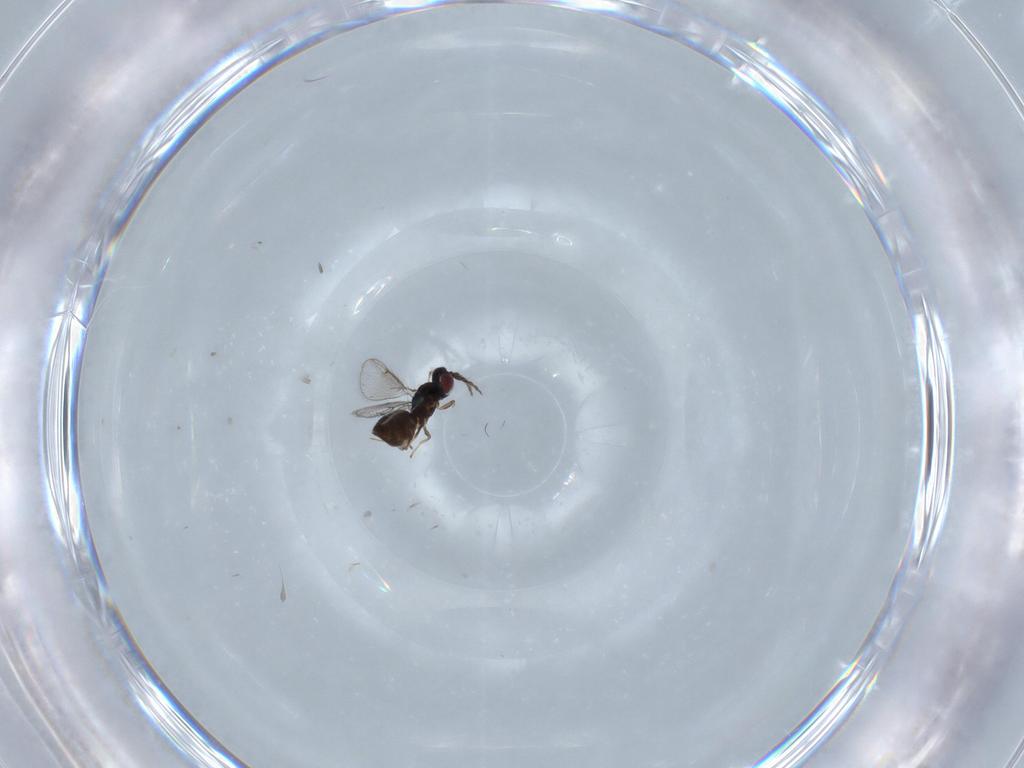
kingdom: Animalia
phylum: Arthropoda
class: Insecta
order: Hymenoptera
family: Eulophidae
